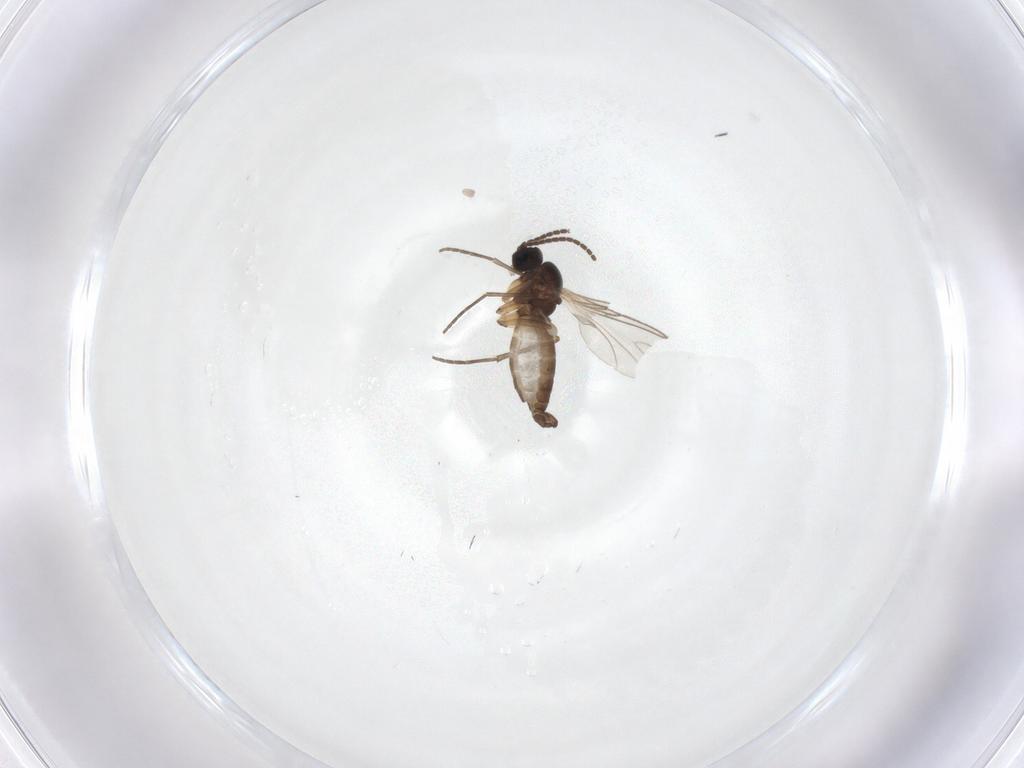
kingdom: Animalia
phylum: Arthropoda
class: Insecta
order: Diptera
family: Sciaridae
